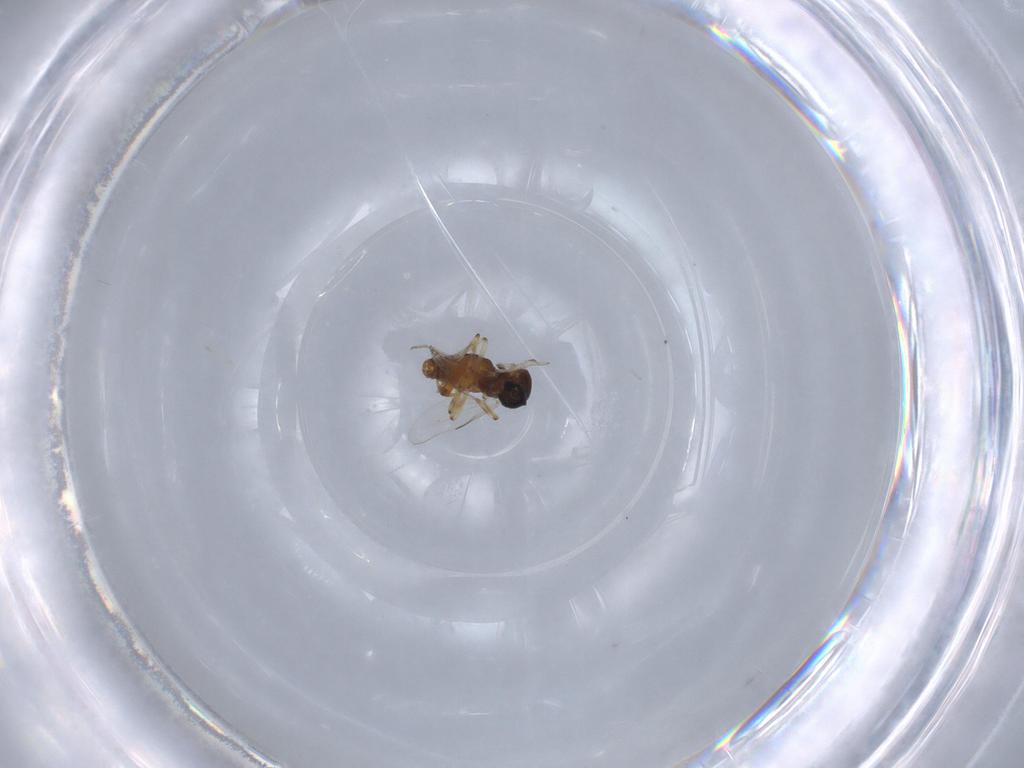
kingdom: Animalia
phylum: Arthropoda
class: Insecta
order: Diptera
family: Ceratopogonidae
